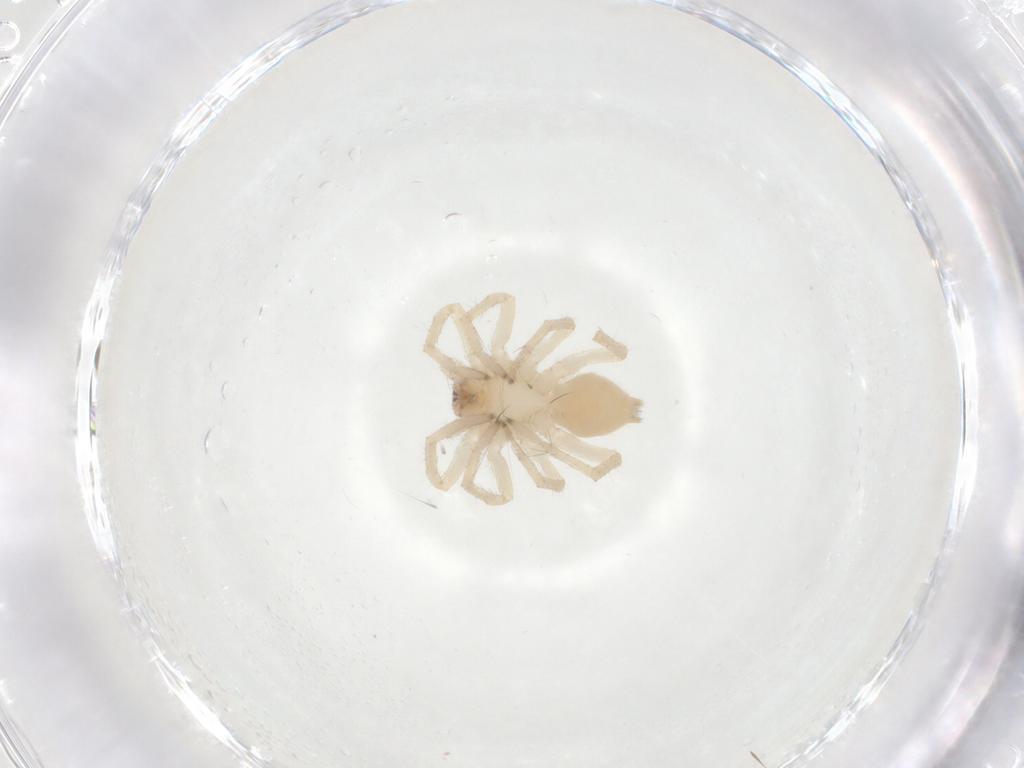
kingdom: Animalia
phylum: Arthropoda
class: Arachnida
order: Araneae
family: Clubionidae
